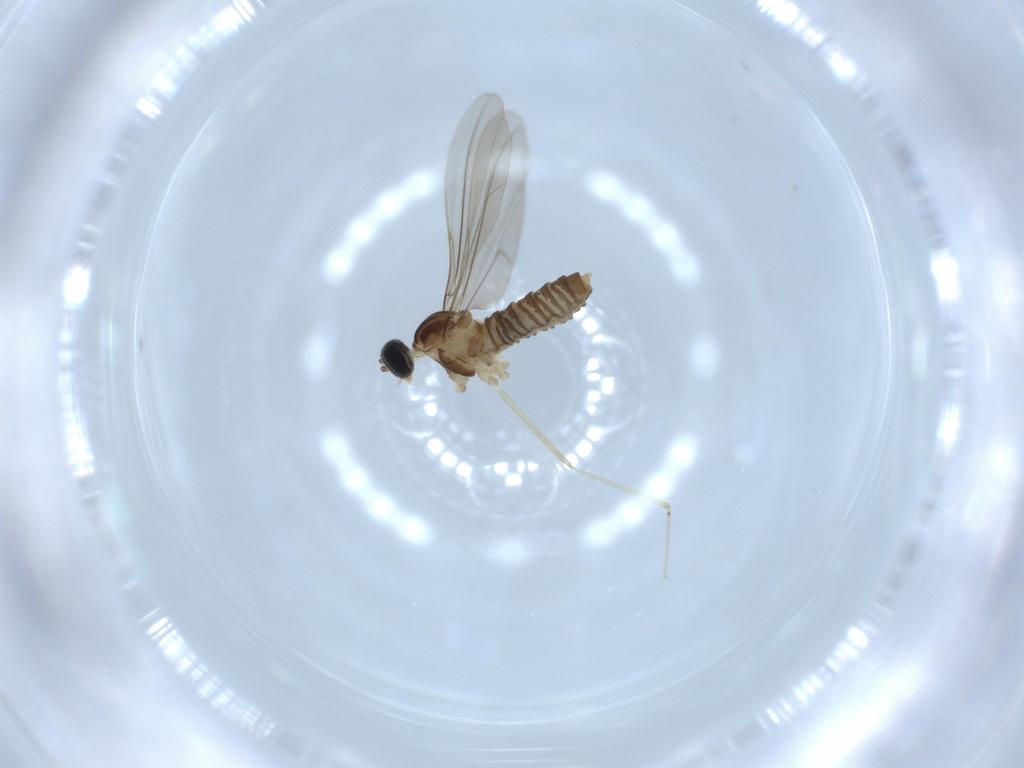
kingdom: Animalia
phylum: Arthropoda
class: Insecta
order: Diptera
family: Cecidomyiidae
